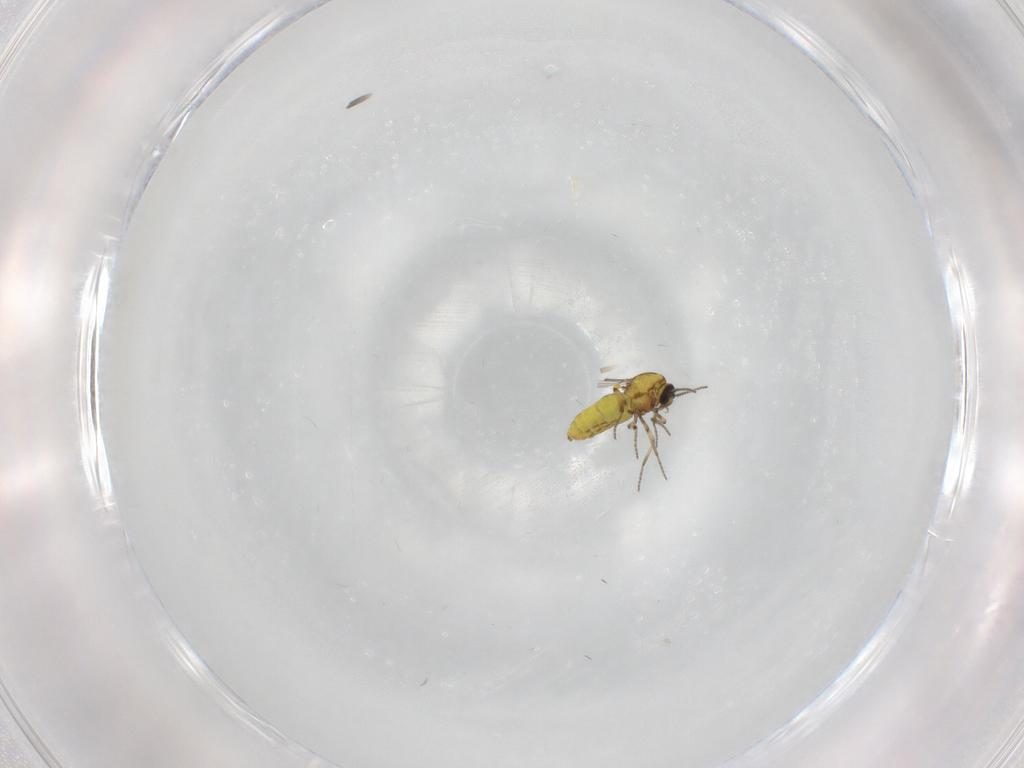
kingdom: Animalia
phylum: Arthropoda
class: Insecta
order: Diptera
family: Ceratopogonidae
